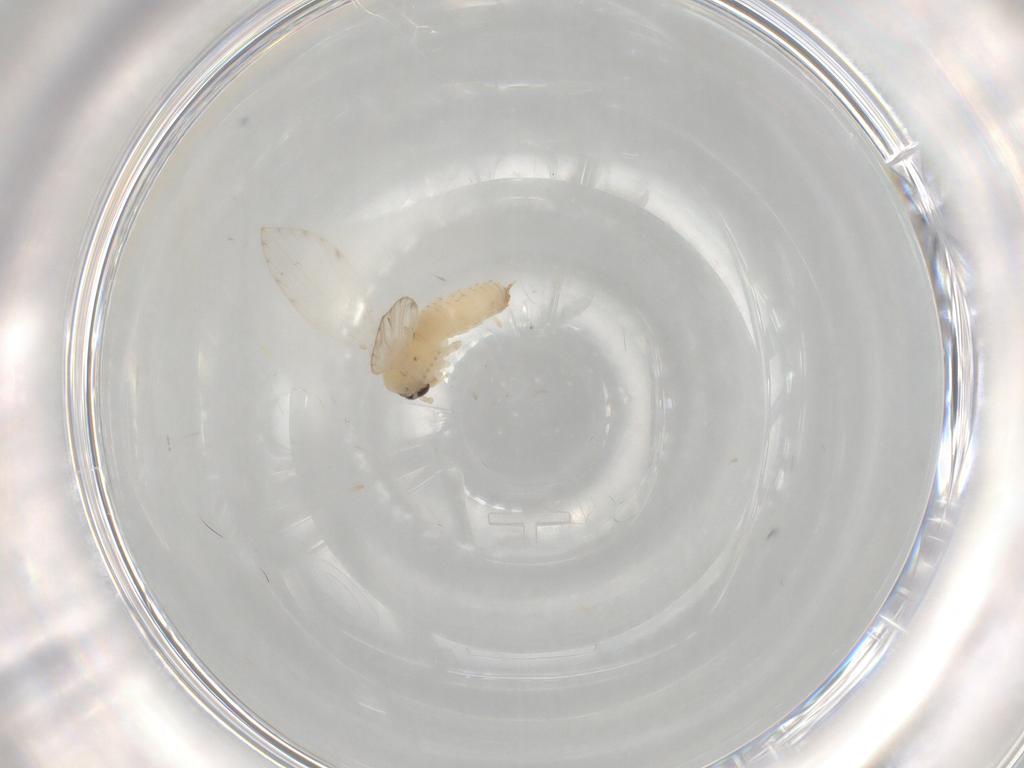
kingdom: Animalia
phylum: Arthropoda
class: Insecta
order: Diptera
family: Psychodidae
